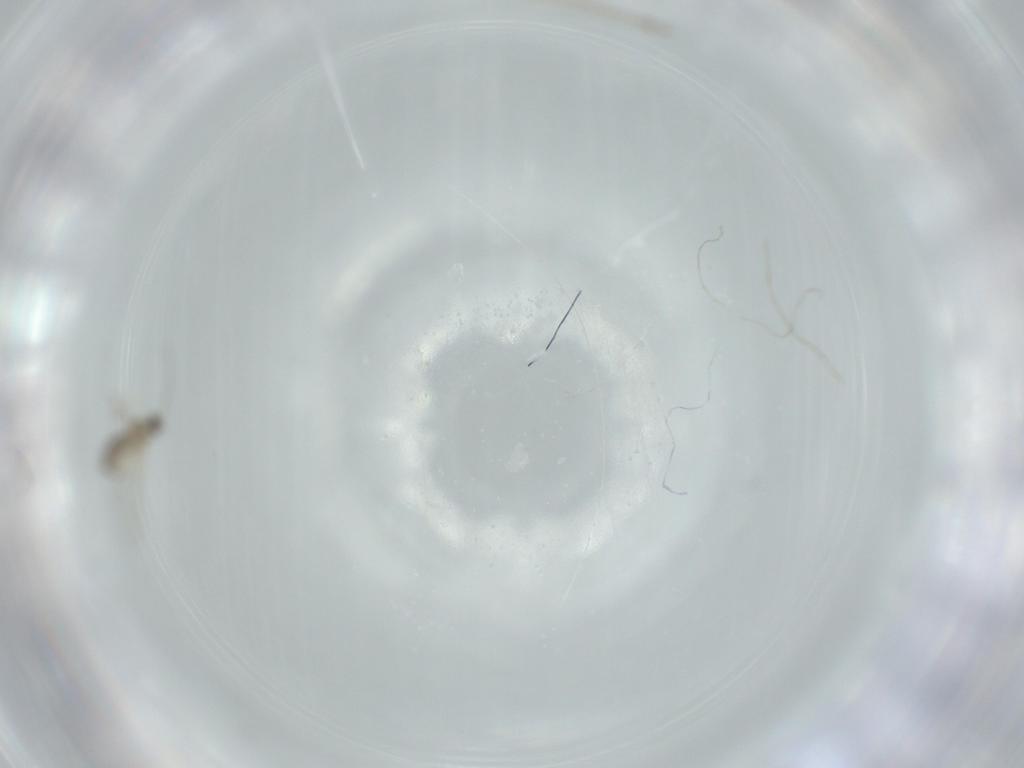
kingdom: Animalia
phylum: Arthropoda
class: Insecta
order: Diptera
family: Cecidomyiidae
